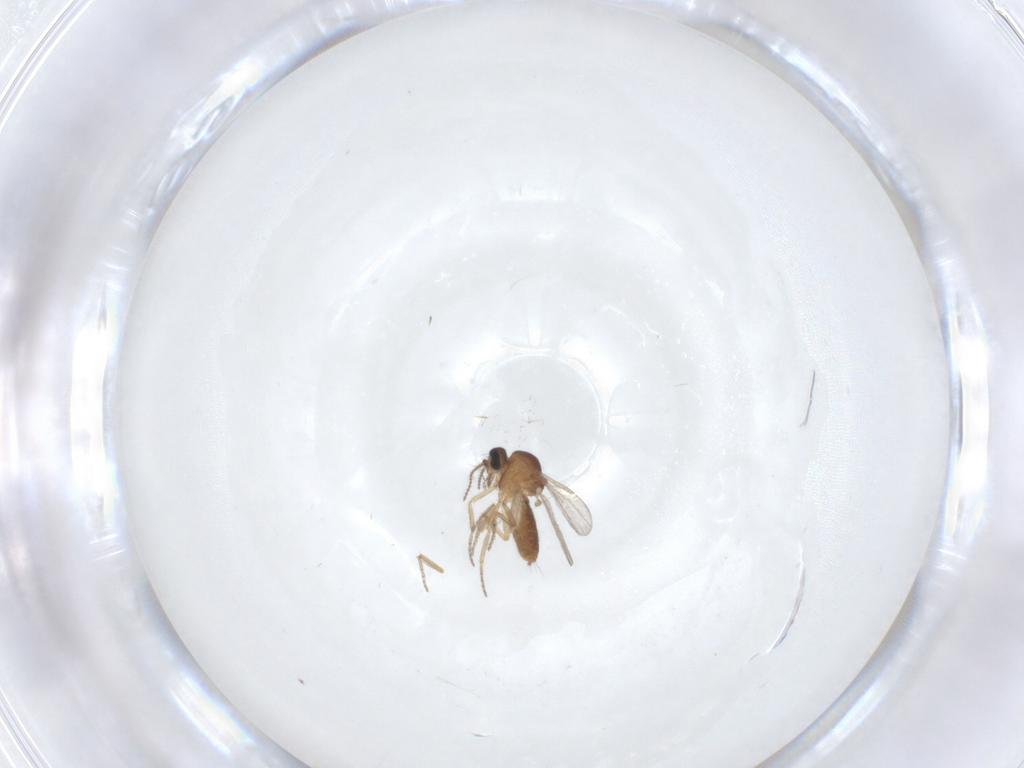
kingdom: Animalia
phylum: Arthropoda
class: Insecta
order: Diptera
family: Ceratopogonidae
